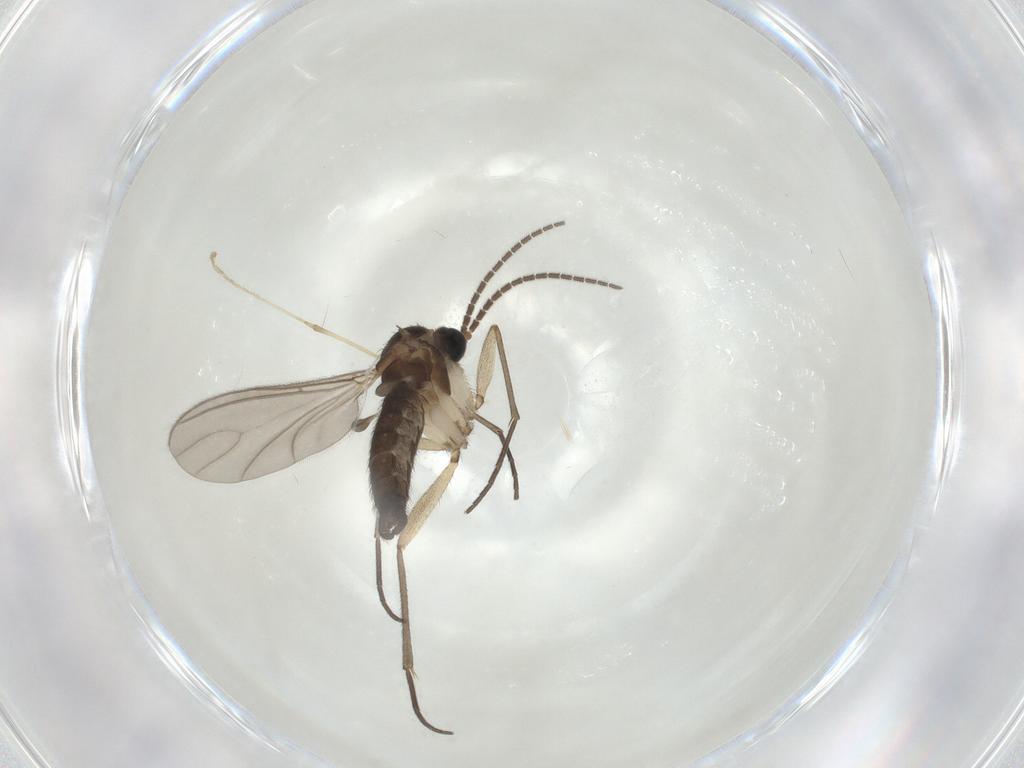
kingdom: Animalia
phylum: Arthropoda
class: Insecta
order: Diptera
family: Sciaridae
